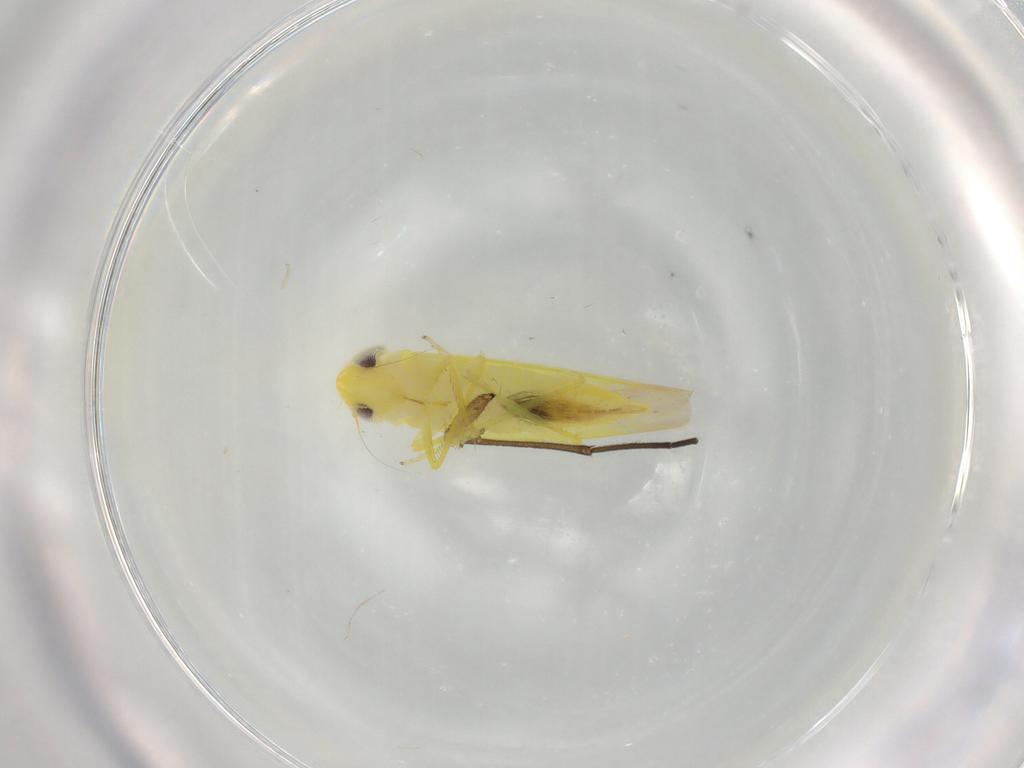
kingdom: Animalia
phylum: Arthropoda
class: Insecta
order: Hemiptera
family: Cicadellidae
